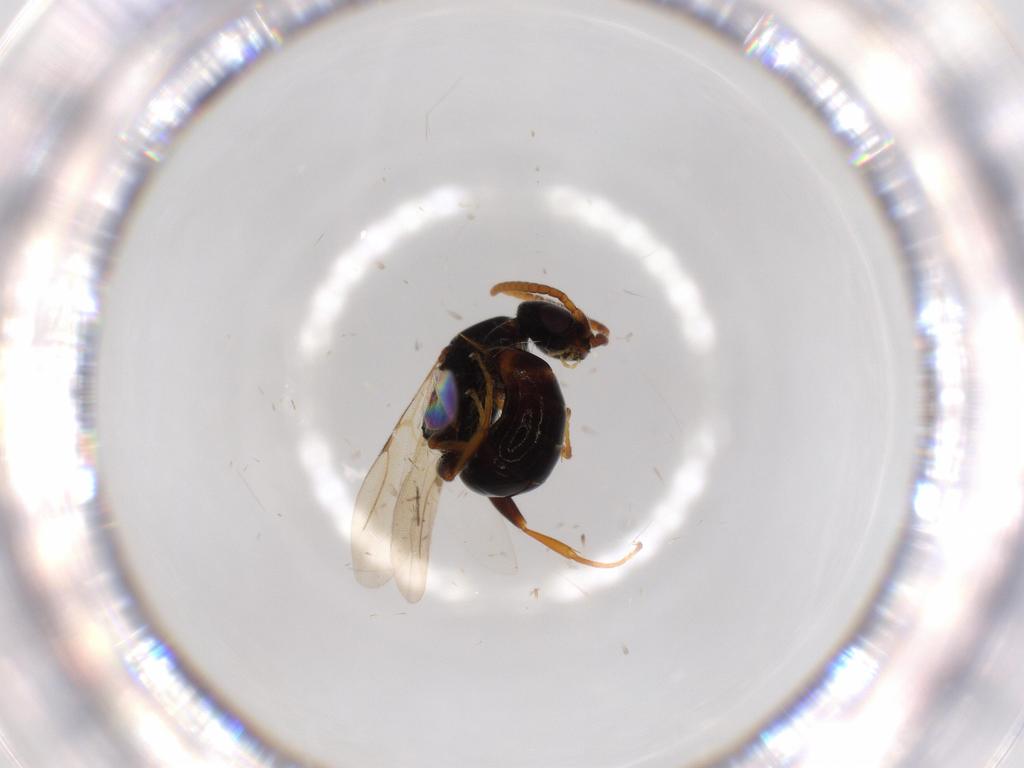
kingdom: Animalia
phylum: Arthropoda
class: Insecta
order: Hymenoptera
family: Bethylidae
